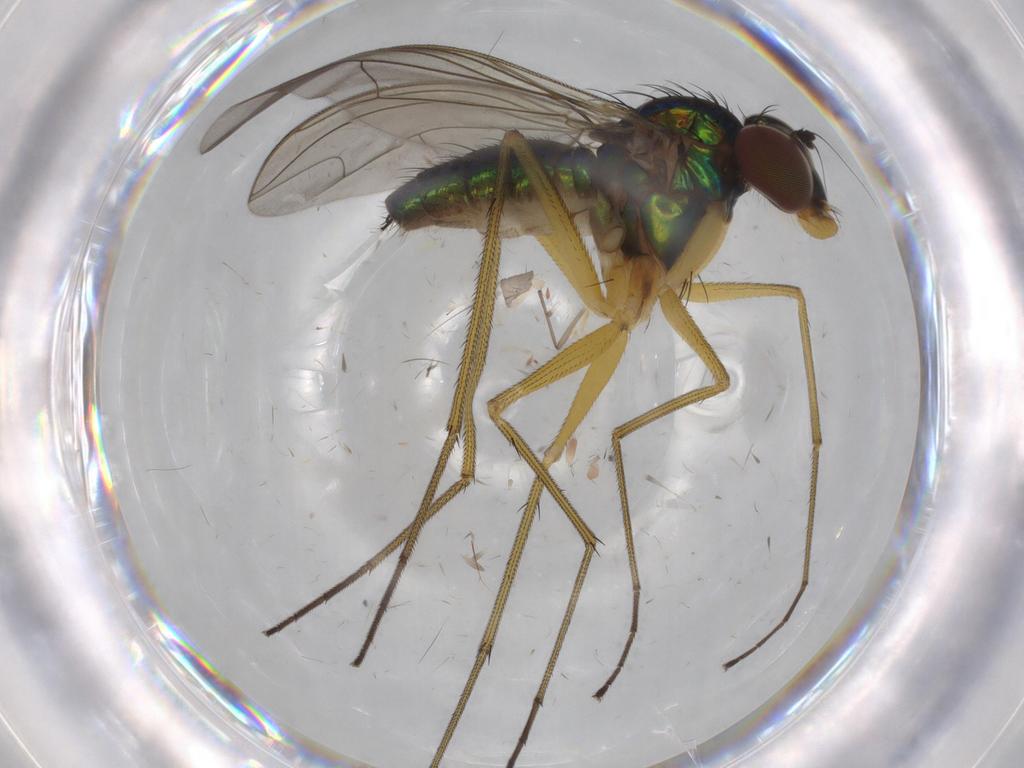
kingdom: Animalia
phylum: Arthropoda
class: Insecta
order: Diptera
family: Dolichopodidae
